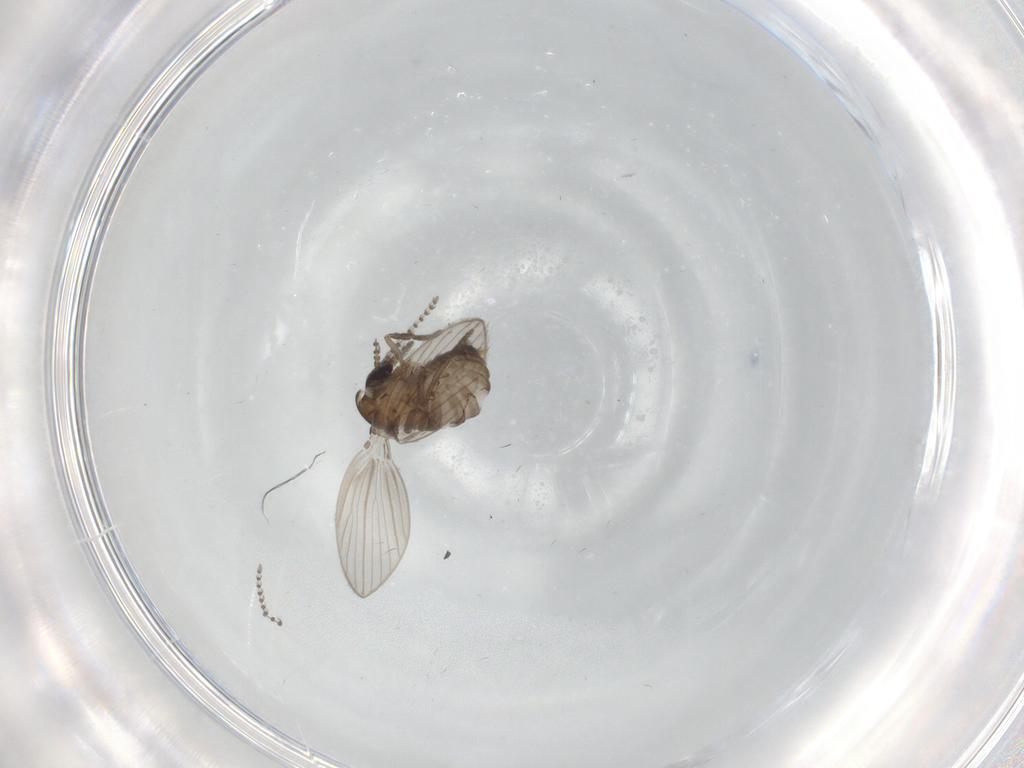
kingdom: Animalia
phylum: Arthropoda
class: Insecta
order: Diptera
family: Psychodidae
